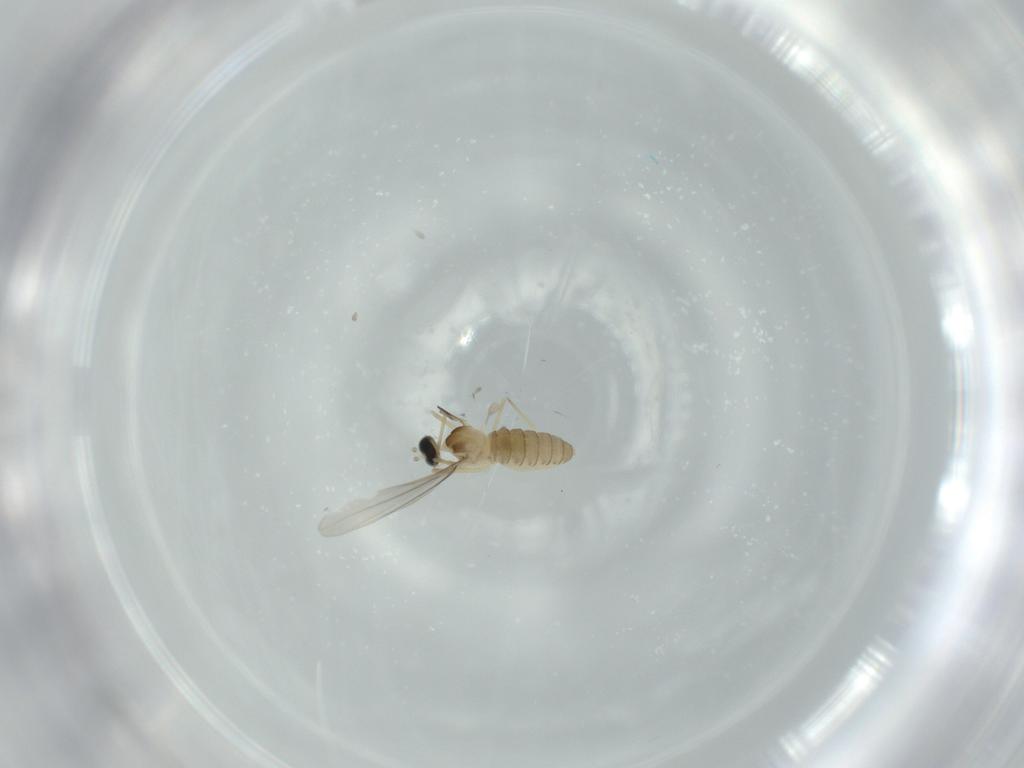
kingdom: Animalia
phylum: Arthropoda
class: Insecta
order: Diptera
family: Cecidomyiidae
